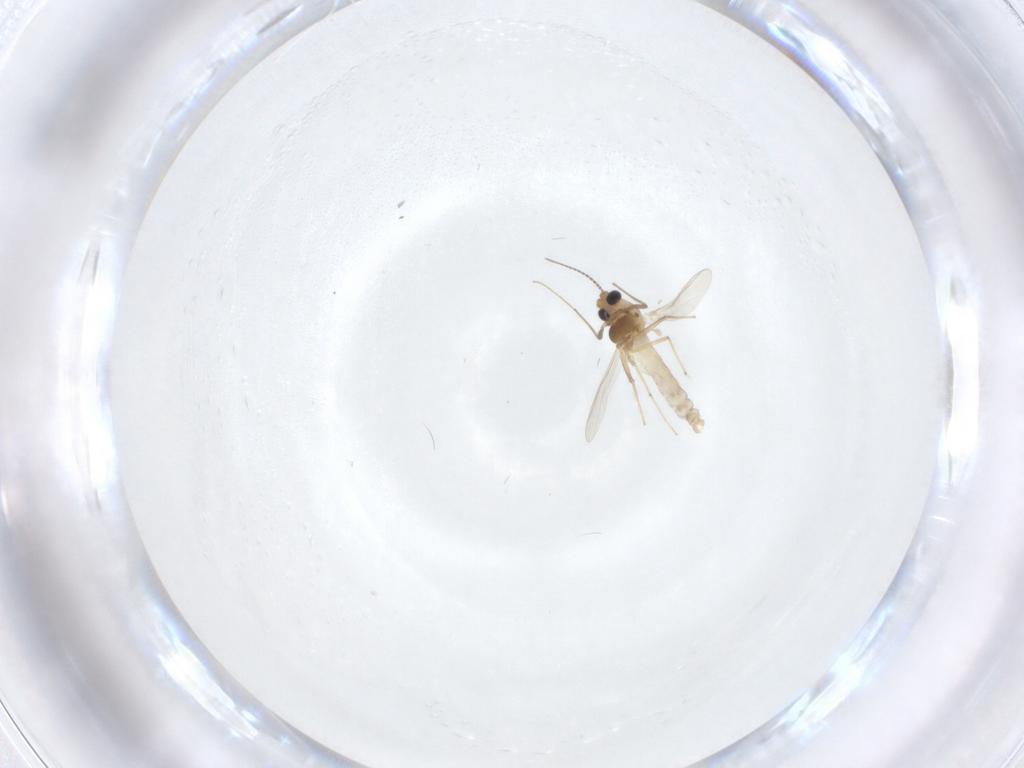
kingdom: Animalia
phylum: Arthropoda
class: Insecta
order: Diptera
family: Chironomidae
